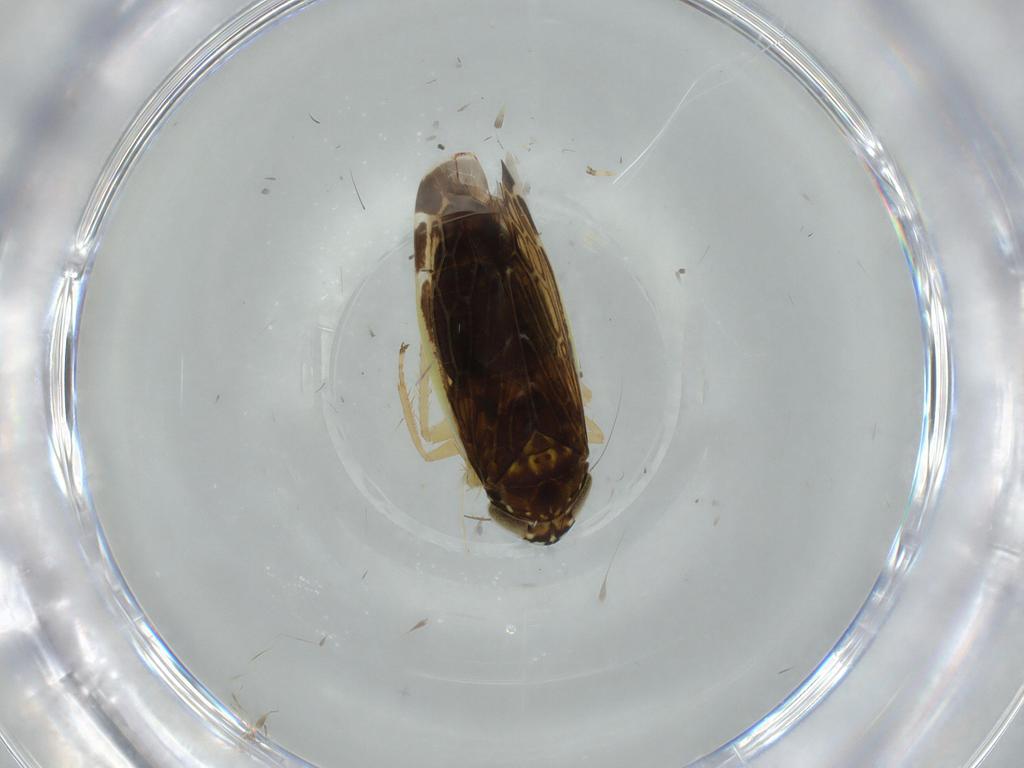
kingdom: Animalia
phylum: Arthropoda
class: Insecta
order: Hemiptera
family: Cicadellidae
